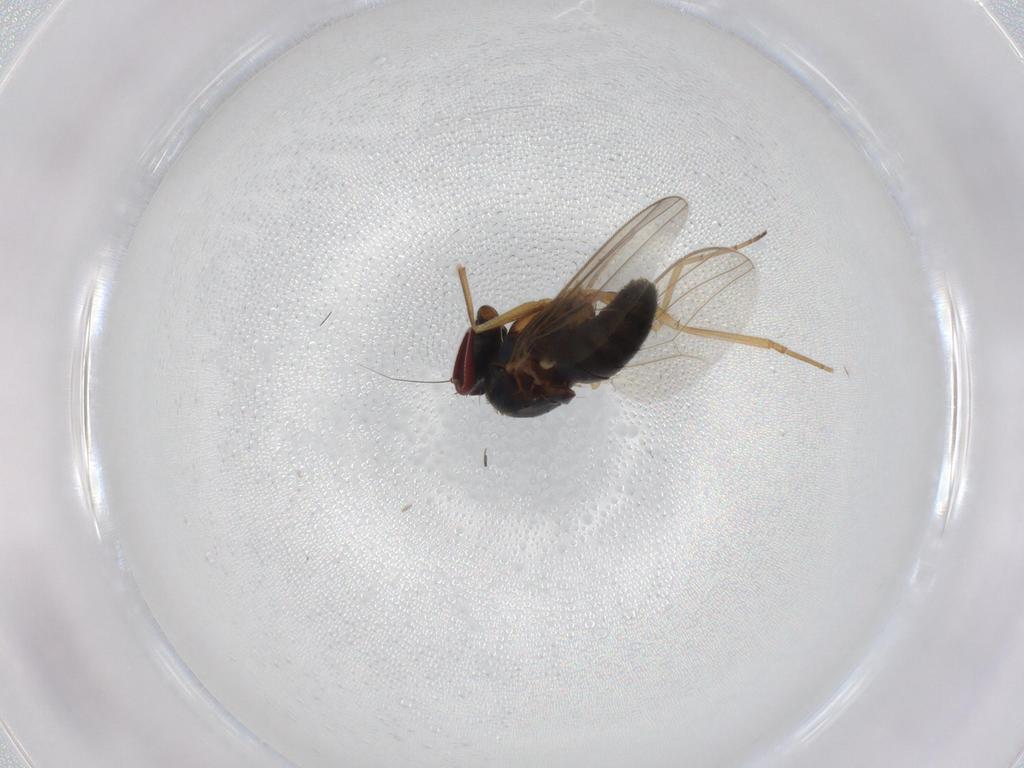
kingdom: Animalia
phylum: Arthropoda
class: Insecta
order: Diptera
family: Dolichopodidae
